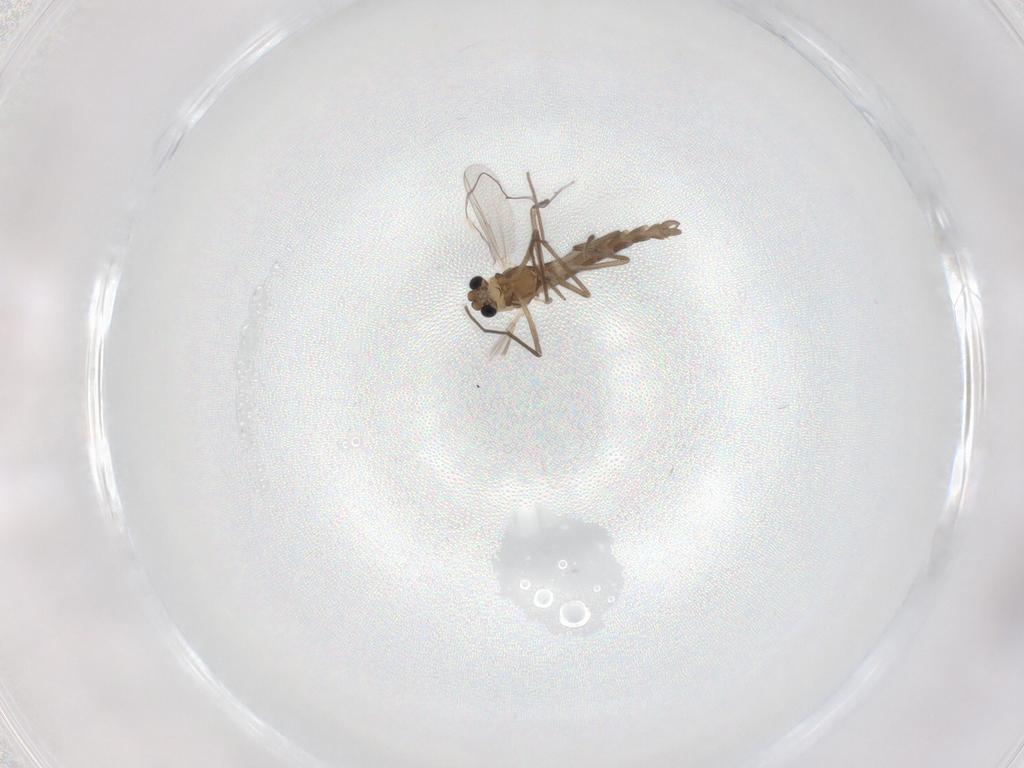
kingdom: Animalia
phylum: Arthropoda
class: Insecta
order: Diptera
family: Chironomidae
